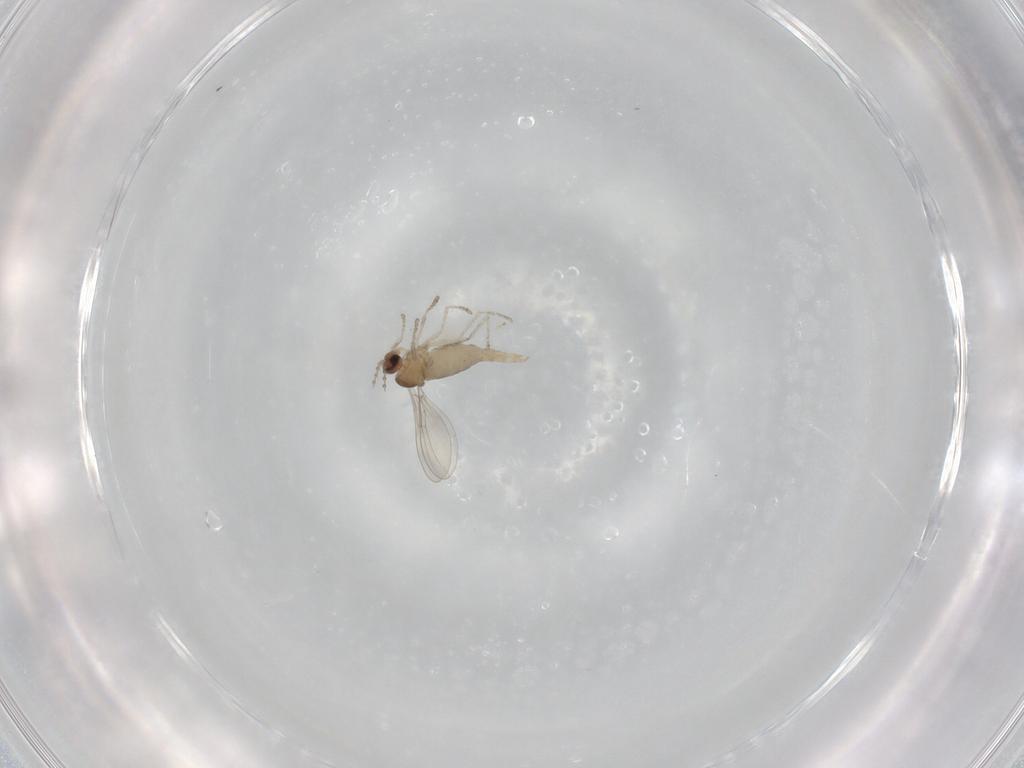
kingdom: Animalia
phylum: Arthropoda
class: Insecta
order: Diptera
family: Cecidomyiidae
